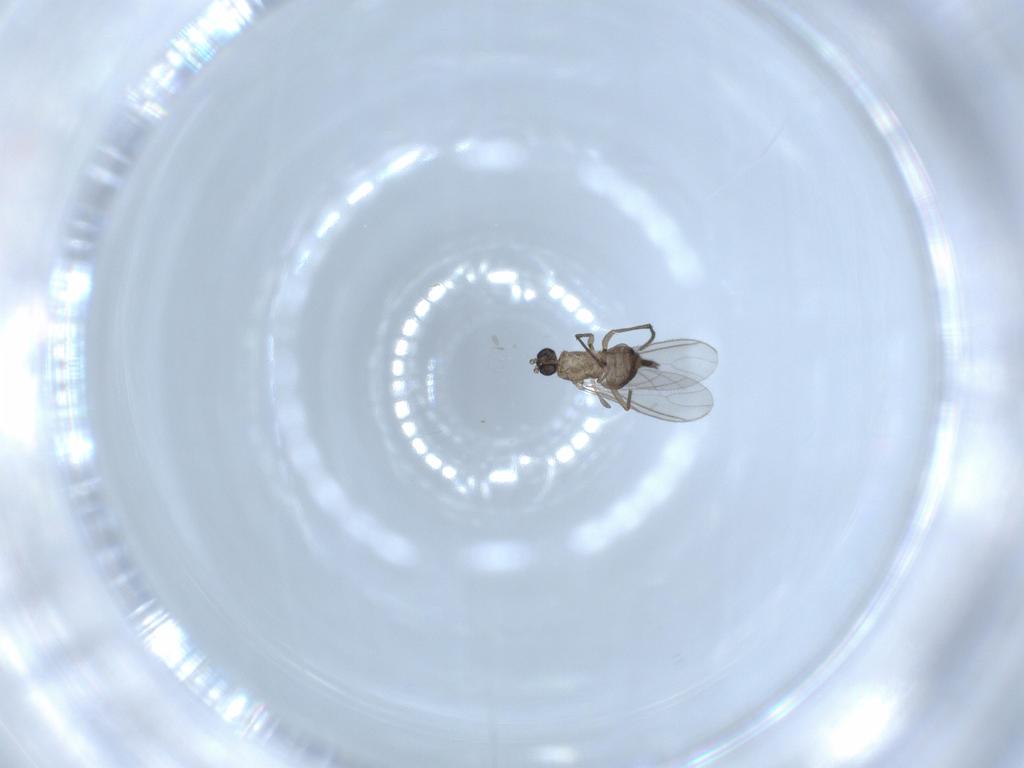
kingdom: Animalia
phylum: Arthropoda
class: Insecta
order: Diptera
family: Sciaridae
